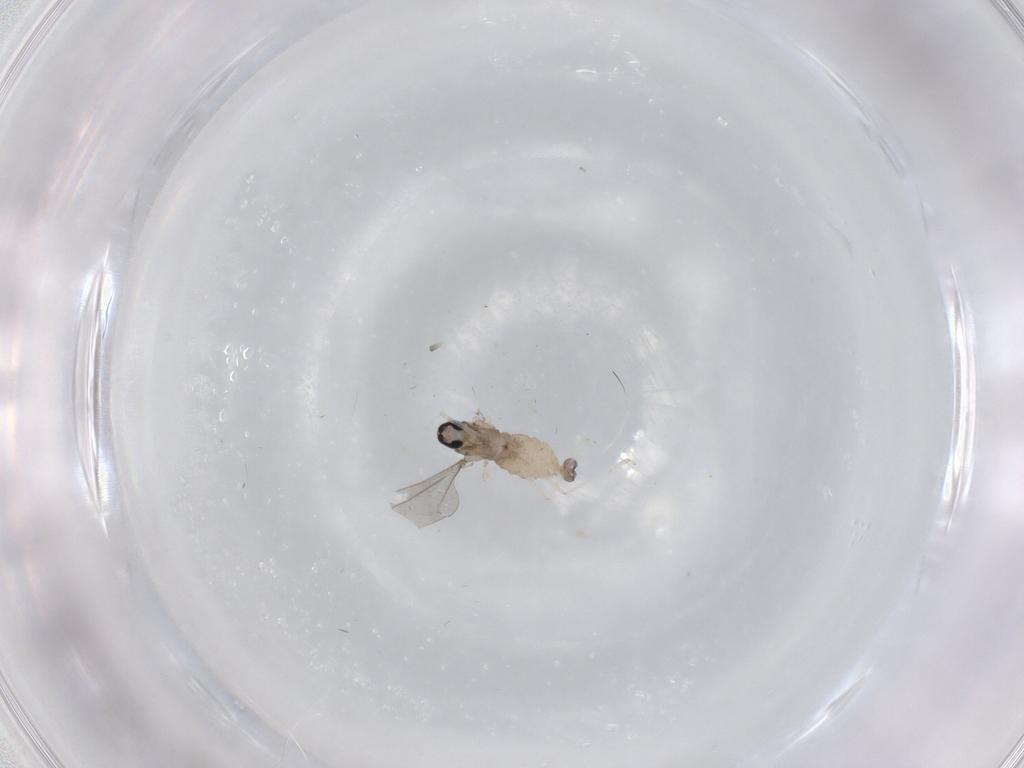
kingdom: Animalia
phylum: Arthropoda
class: Insecta
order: Diptera
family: Cecidomyiidae
